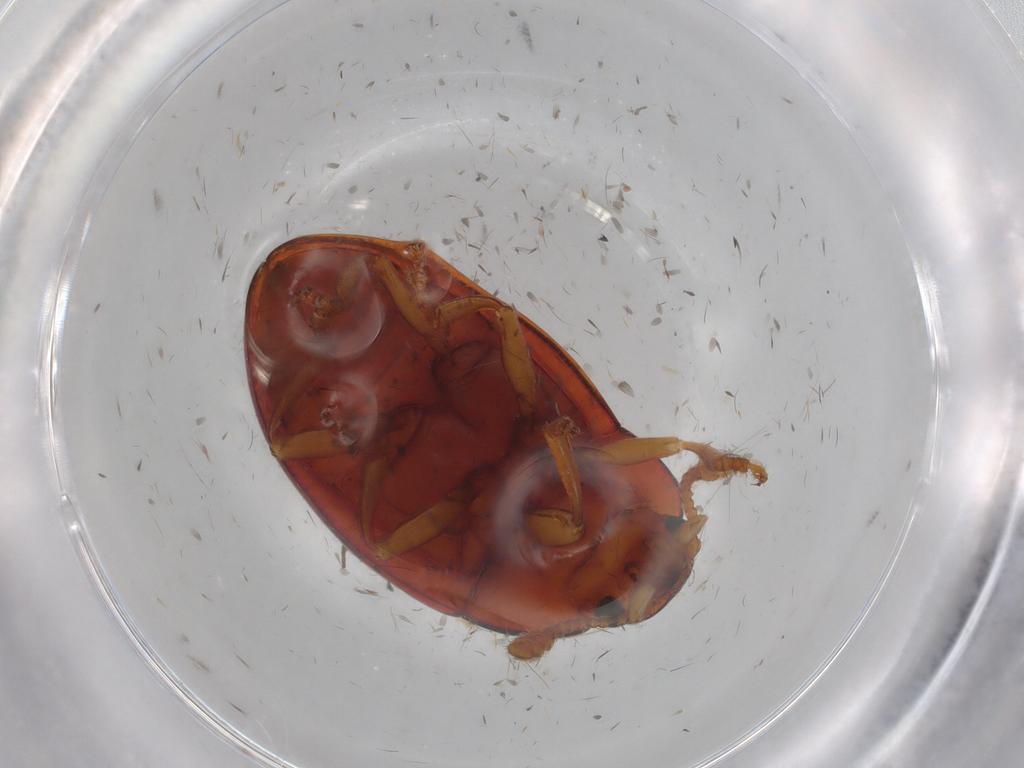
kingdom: Animalia
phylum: Arthropoda
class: Insecta
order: Coleoptera
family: Erotylidae
